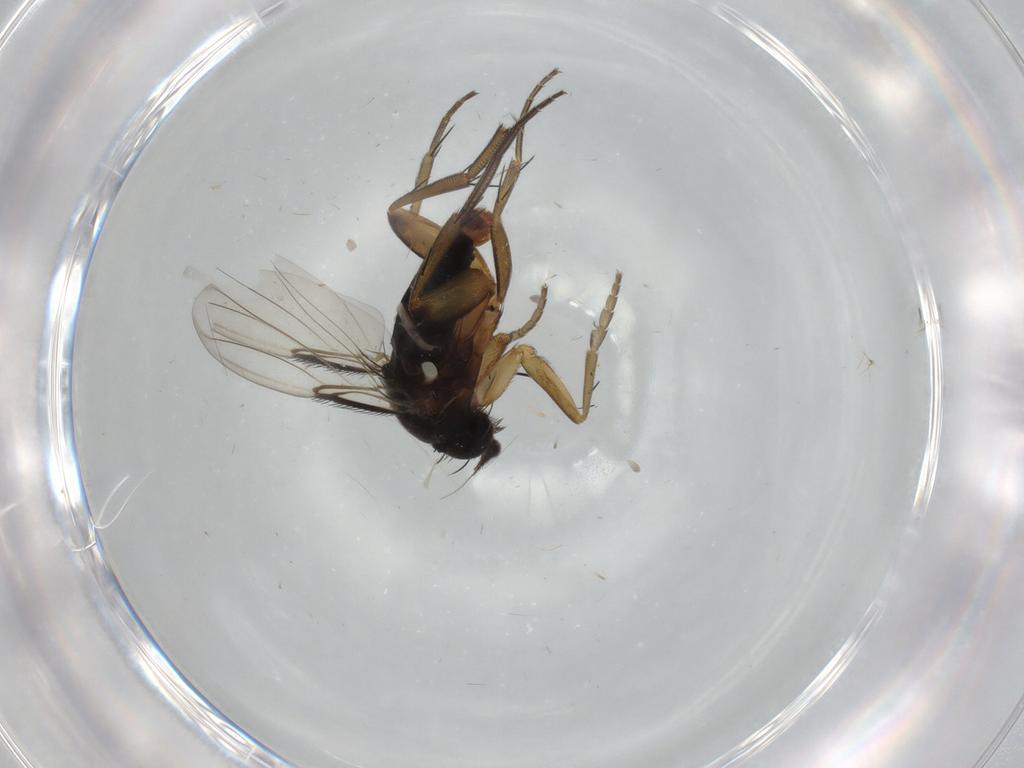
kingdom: Animalia
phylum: Arthropoda
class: Insecta
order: Diptera
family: Phoridae
